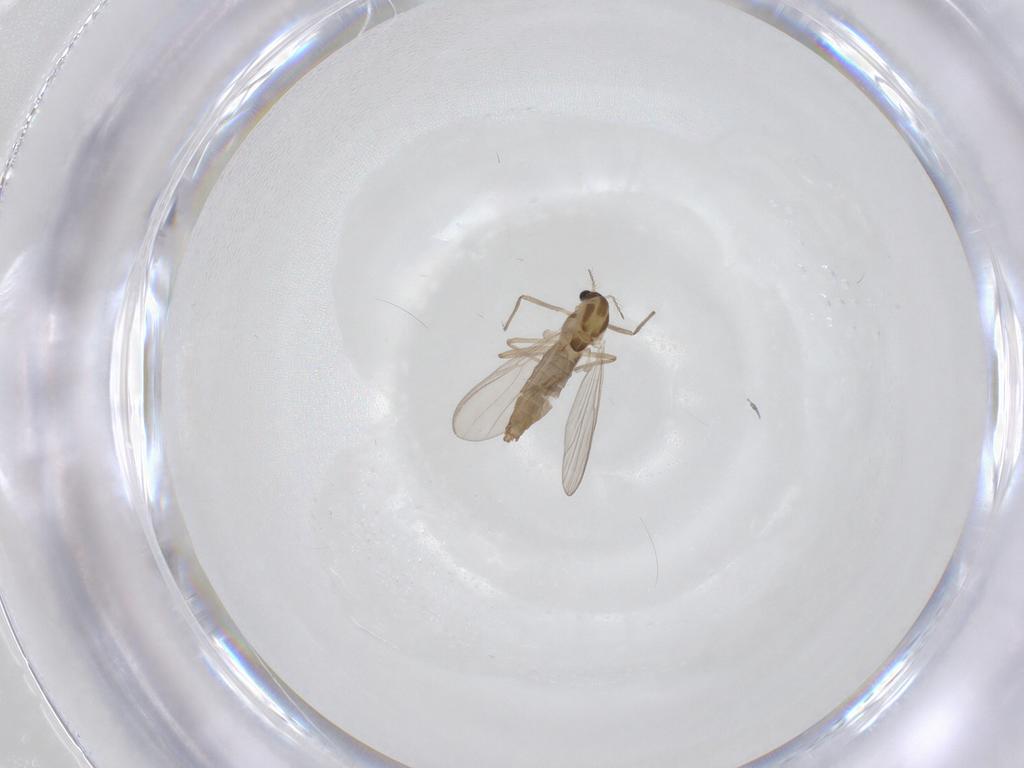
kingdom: Animalia
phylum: Arthropoda
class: Insecta
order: Diptera
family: Chironomidae
